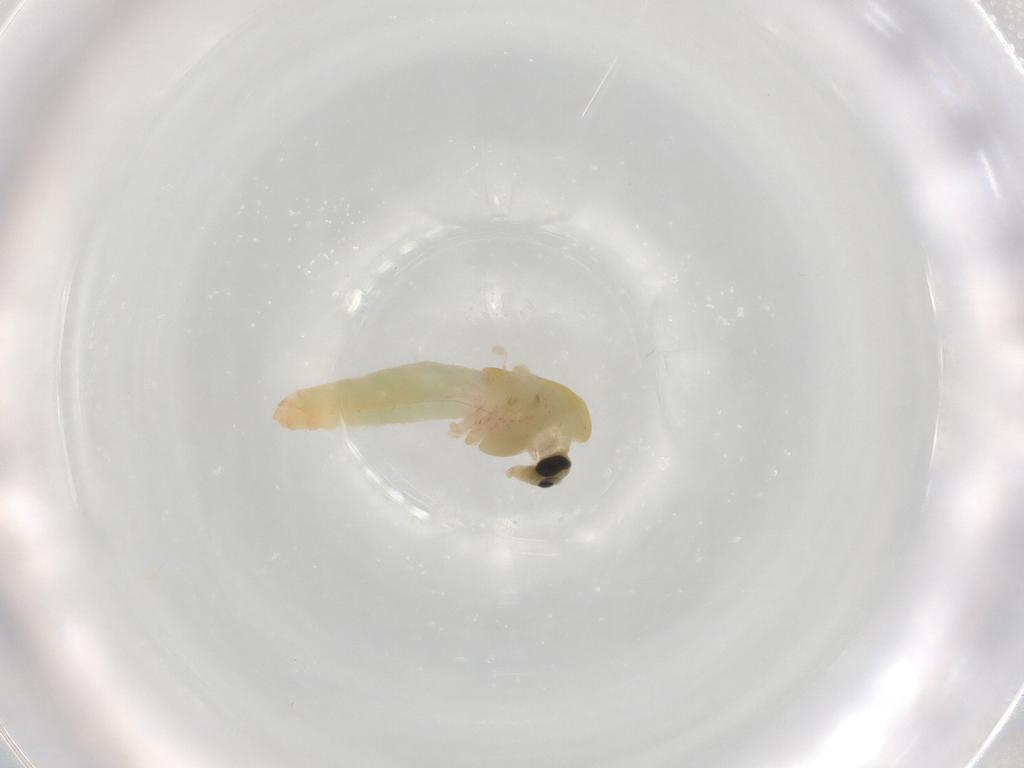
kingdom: Animalia
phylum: Arthropoda
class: Insecta
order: Diptera
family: Chironomidae
